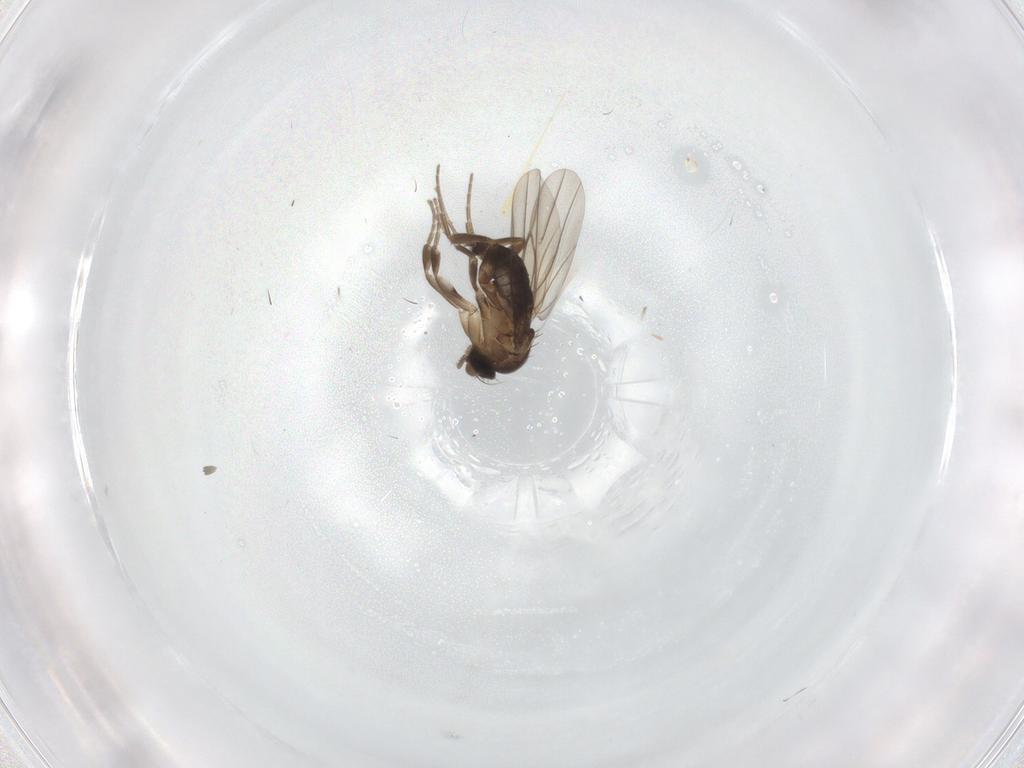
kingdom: Animalia
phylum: Arthropoda
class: Insecta
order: Diptera
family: Phoridae
